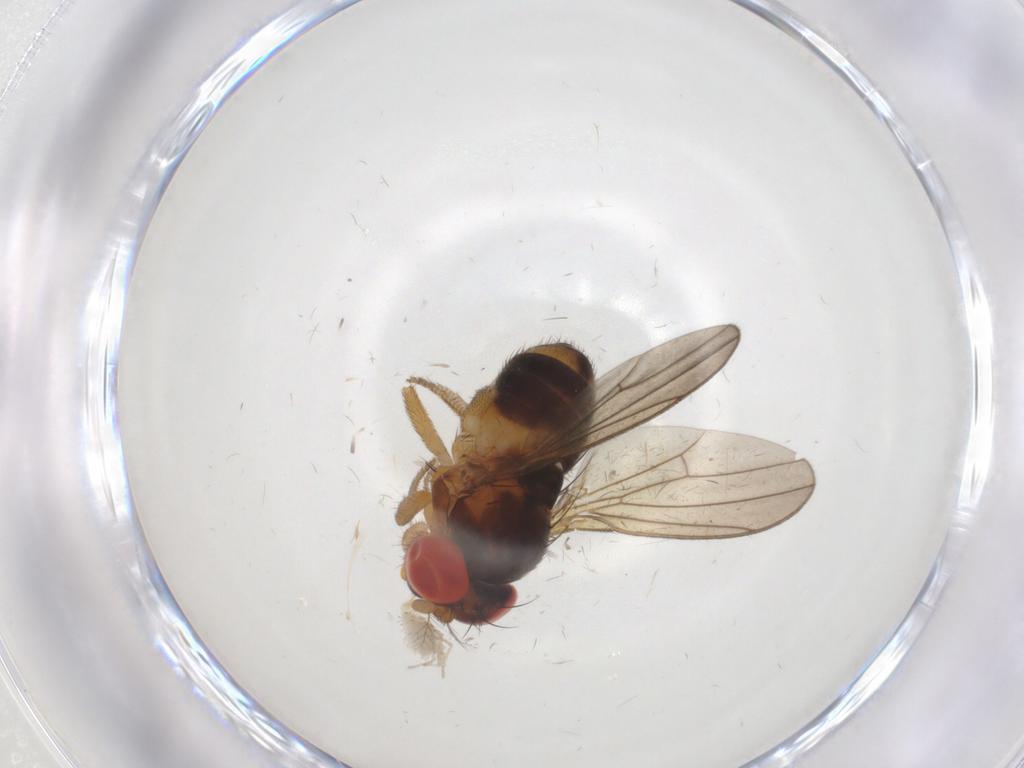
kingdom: Animalia
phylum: Arthropoda
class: Insecta
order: Diptera
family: Drosophilidae
